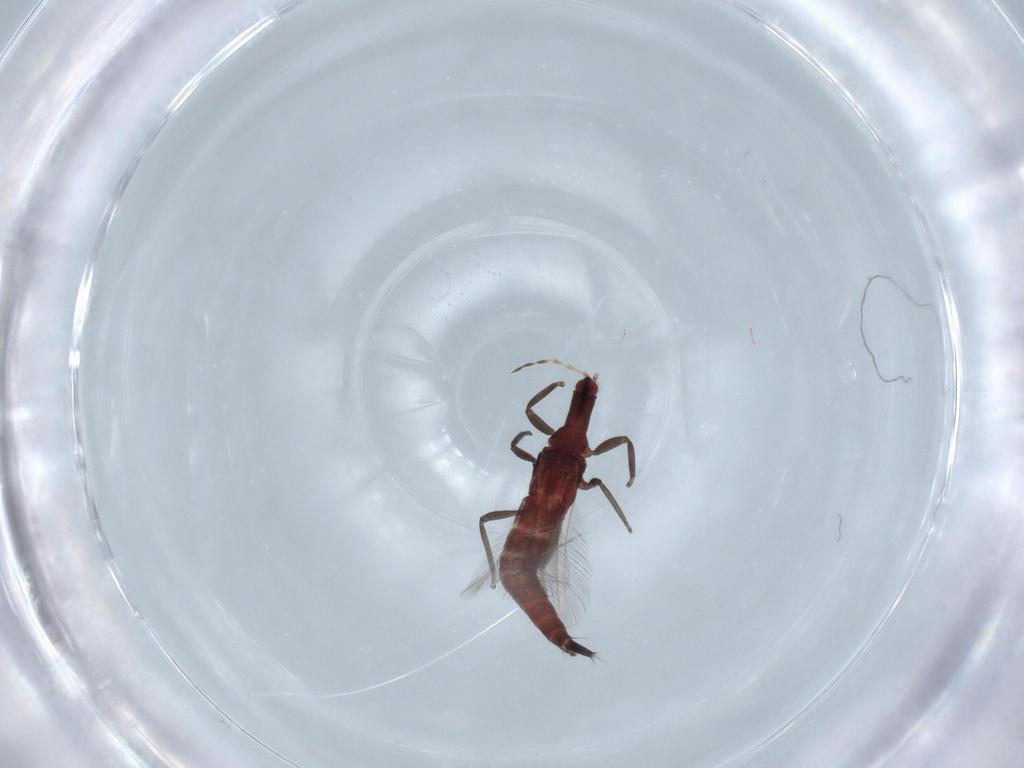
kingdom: Animalia
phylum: Arthropoda
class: Insecta
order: Thysanoptera
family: Phlaeothripidae
